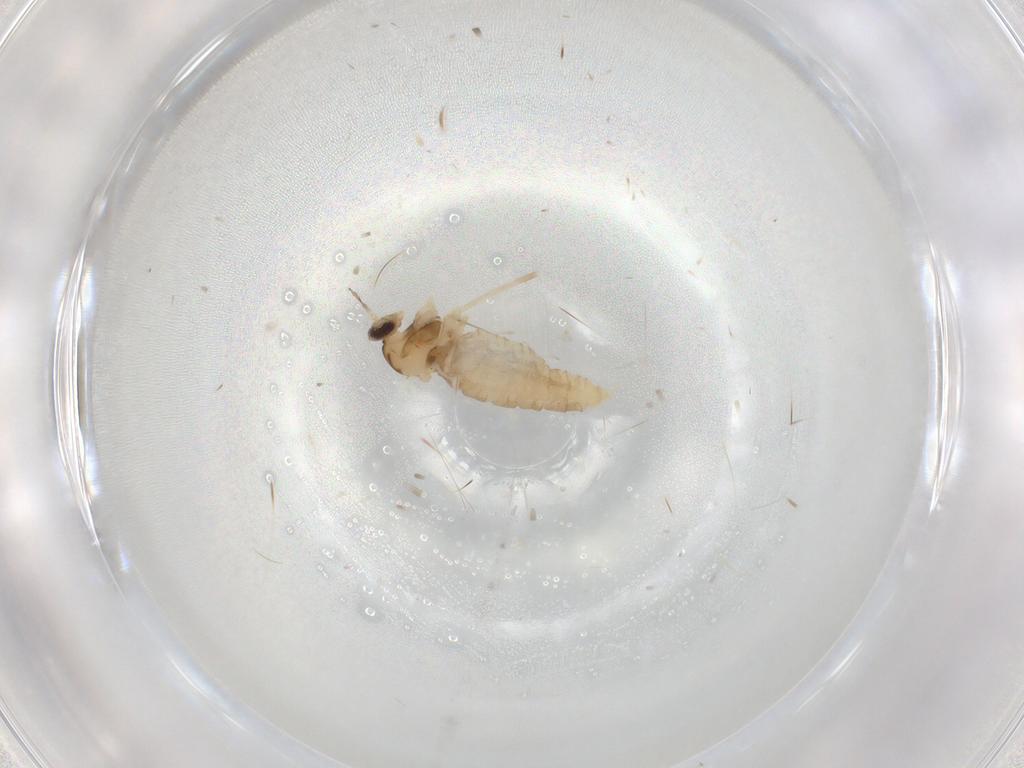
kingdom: Animalia
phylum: Arthropoda
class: Insecta
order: Diptera
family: Cecidomyiidae
